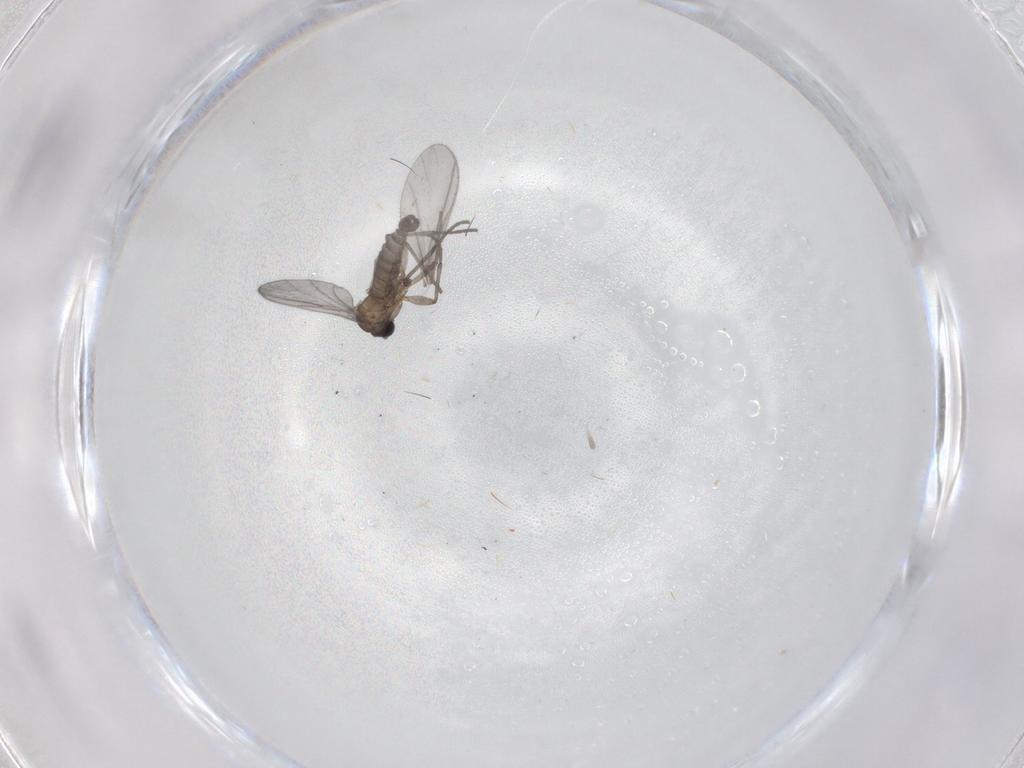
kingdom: Animalia
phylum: Arthropoda
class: Insecta
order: Diptera
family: Sciaridae
